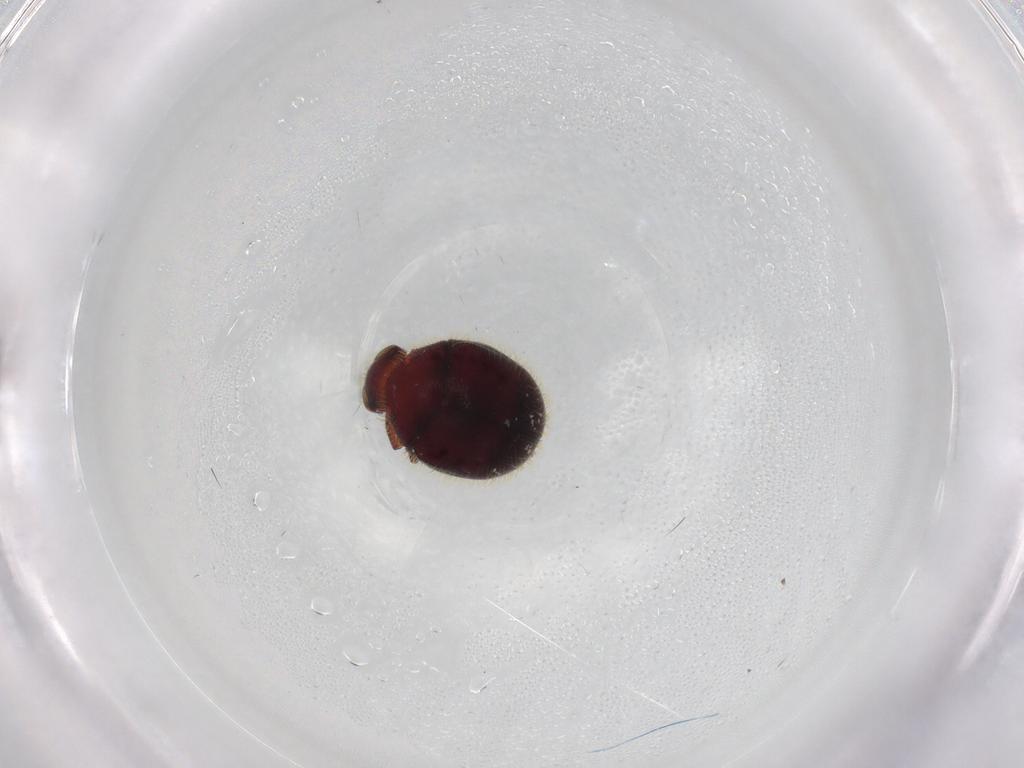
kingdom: Animalia
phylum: Arthropoda
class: Insecta
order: Coleoptera
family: Ptinidae
